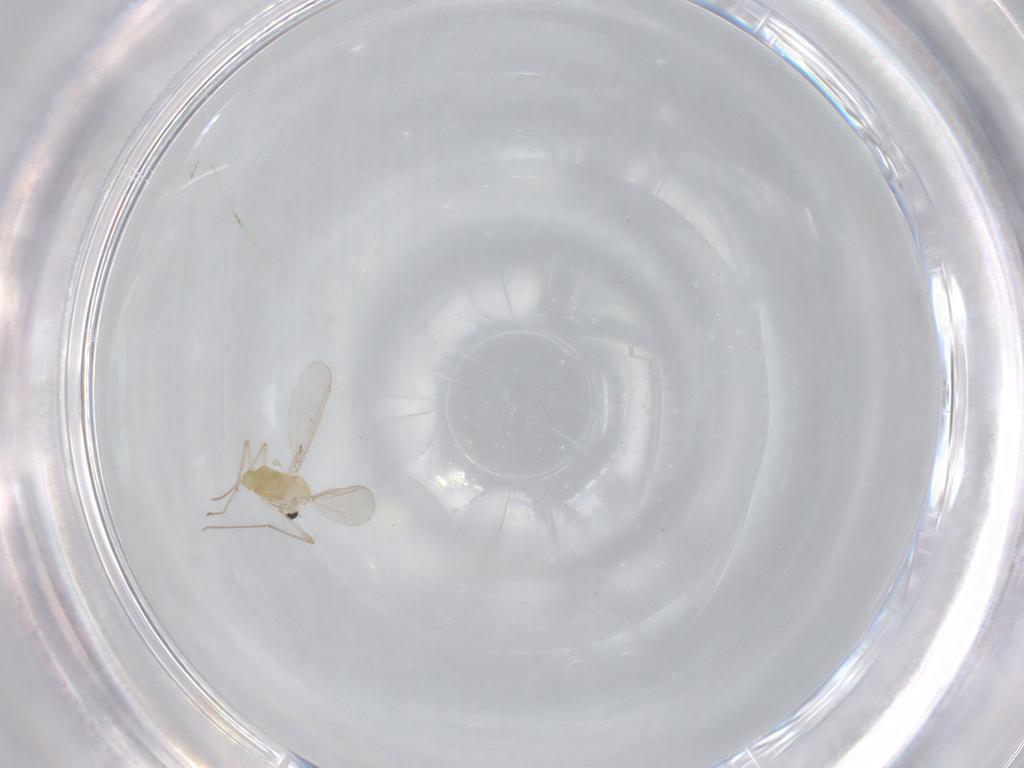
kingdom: Animalia
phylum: Arthropoda
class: Insecta
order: Diptera
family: Chironomidae
